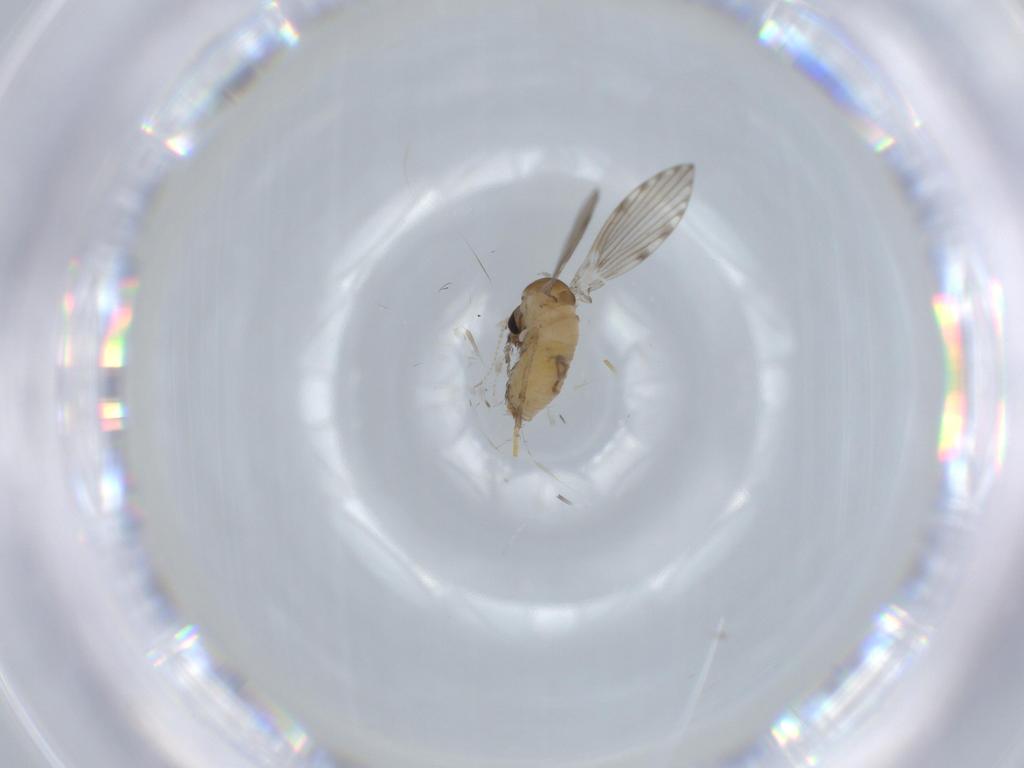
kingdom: Animalia
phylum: Arthropoda
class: Insecta
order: Diptera
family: Psychodidae
